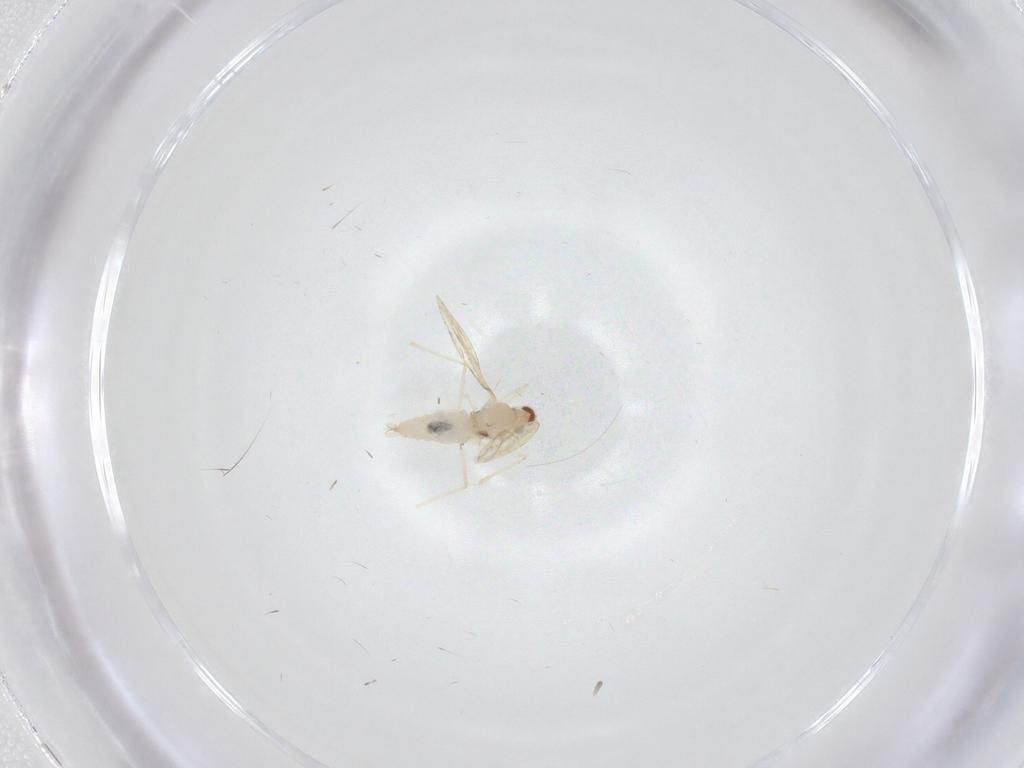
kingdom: Animalia
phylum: Arthropoda
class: Insecta
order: Diptera
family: Cecidomyiidae
